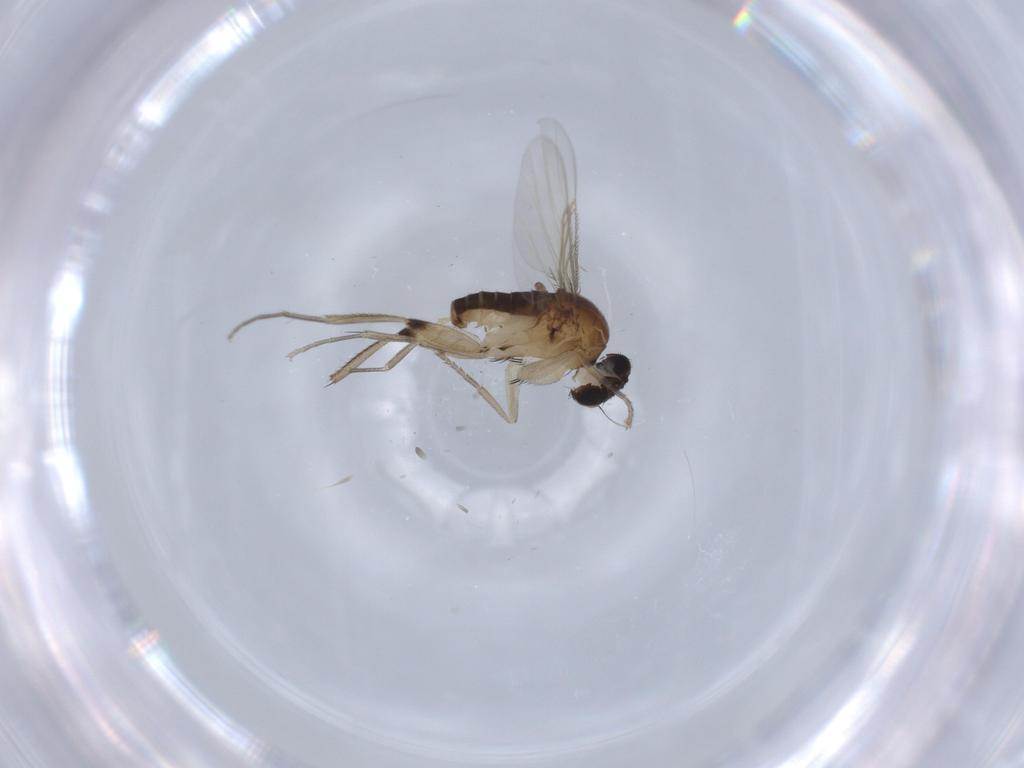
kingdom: Animalia
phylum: Arthropoda
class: Insecta
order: Diptera
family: Phoridae
